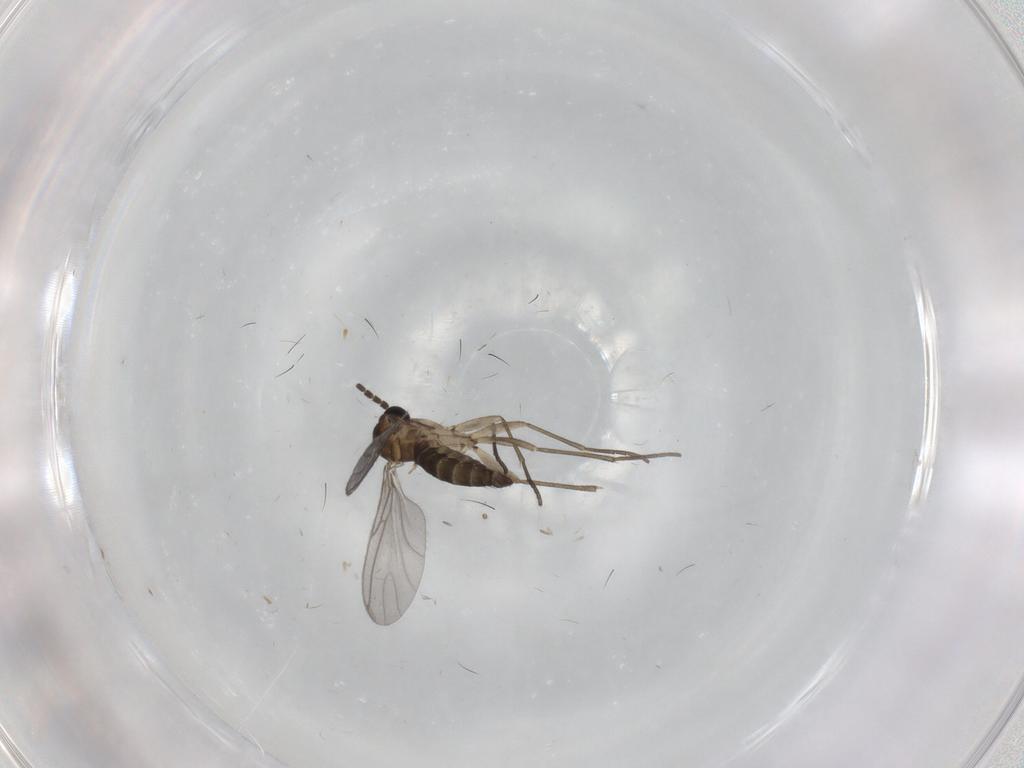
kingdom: Animalia
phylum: Arthropoda
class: Insecta
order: Diptera
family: Sciaridae
